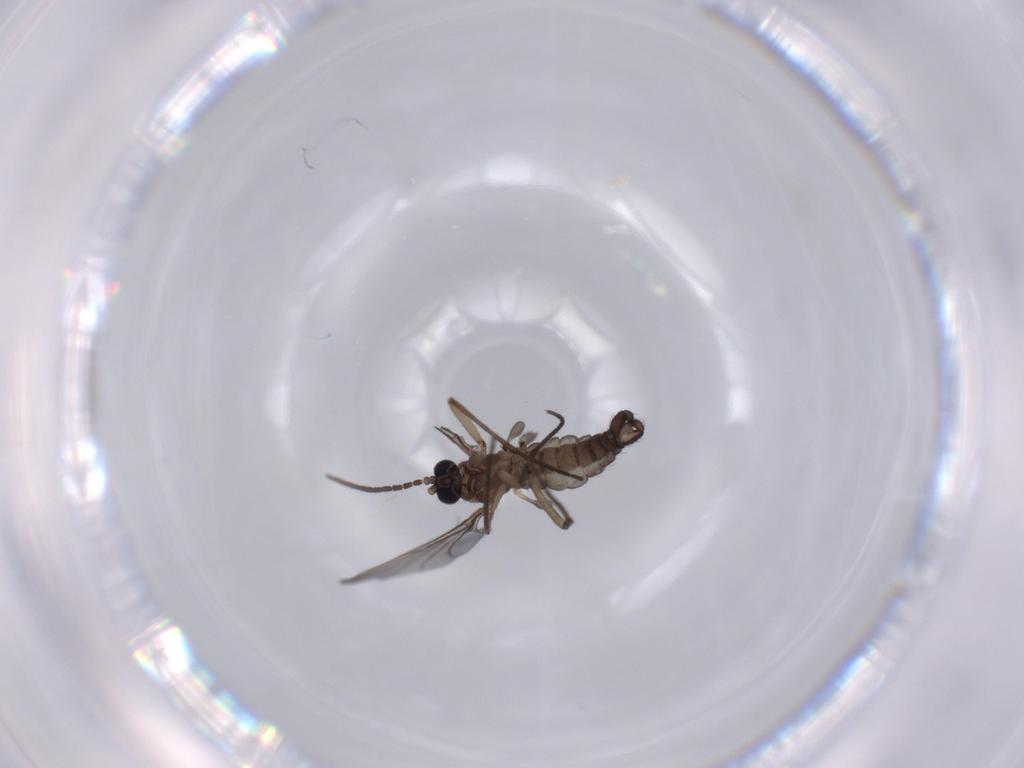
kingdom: Animalia
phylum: Arthropoda
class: Insecta
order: Diptera
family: Sciaridae
